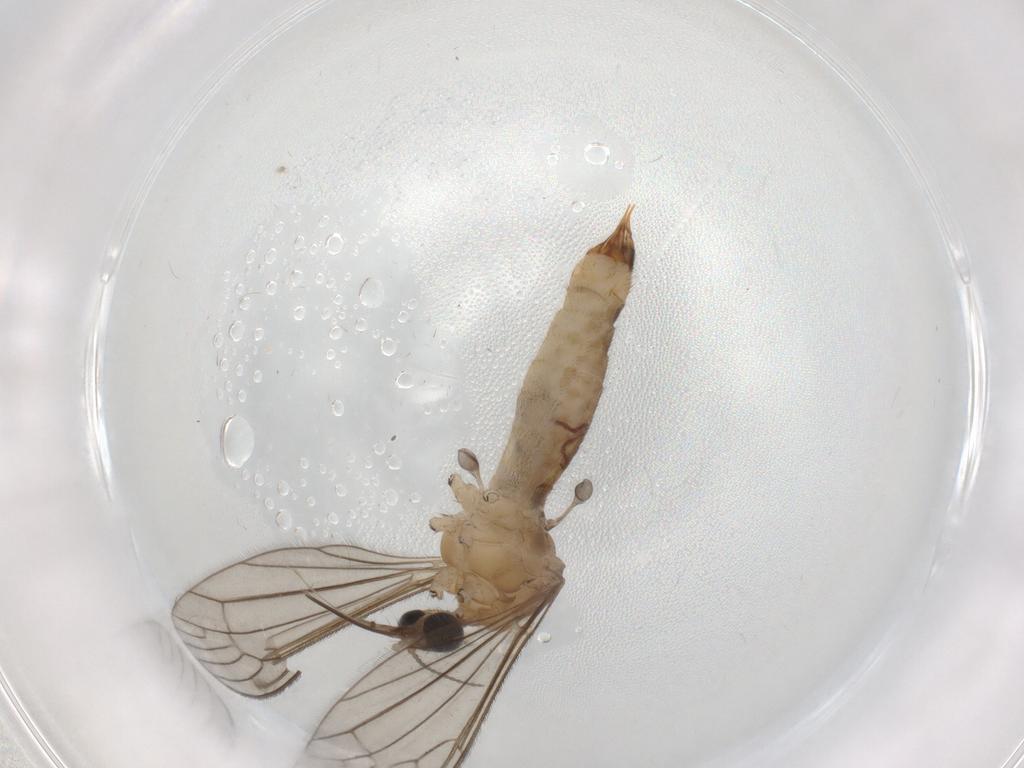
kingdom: Animalia
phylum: Arthropoda
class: Insecta
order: Diptera
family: Limoniidae
